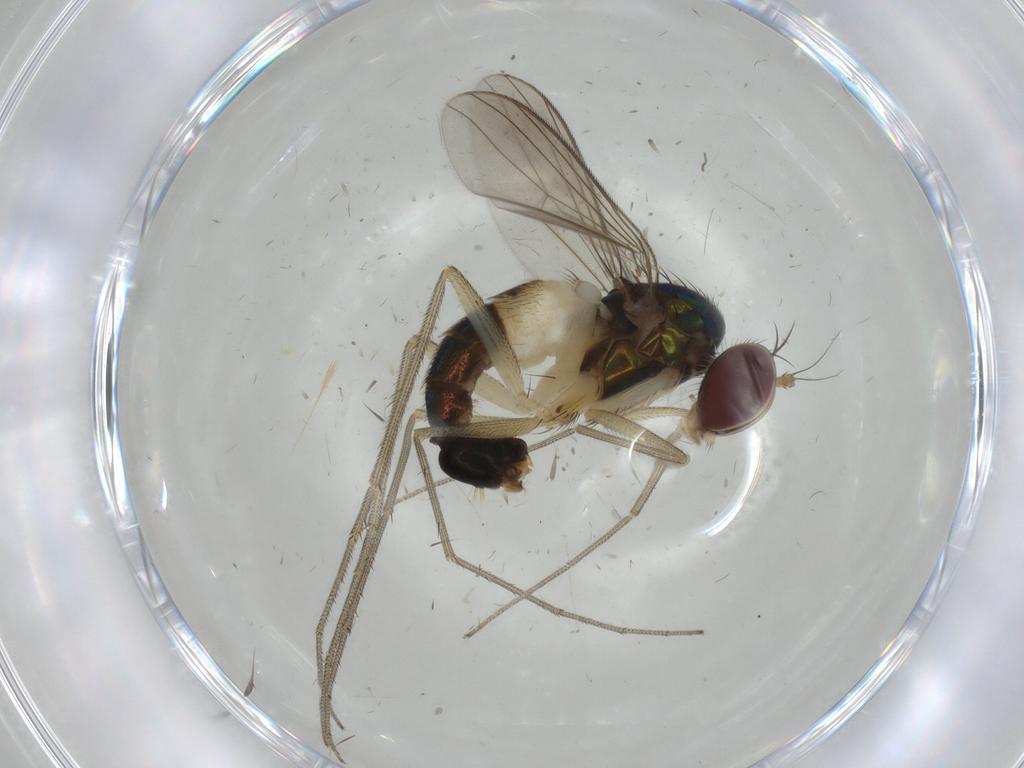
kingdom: Animalia
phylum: Arthropoda
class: Insecta
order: Diptera
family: Dolichopodidae
